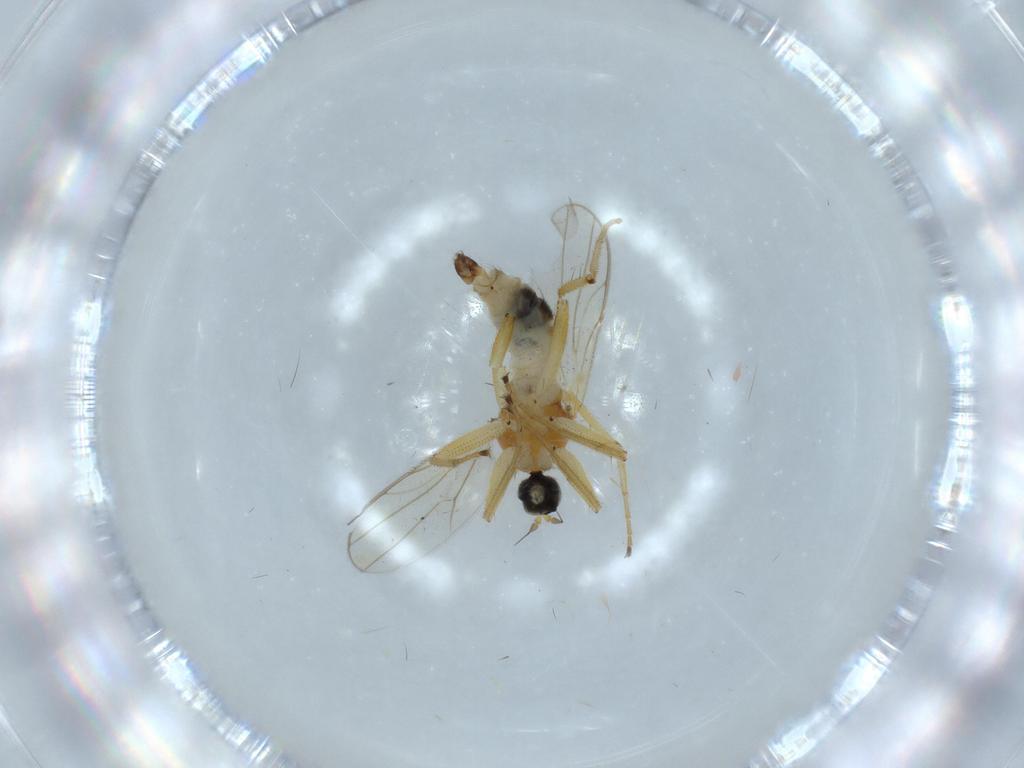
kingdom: Animalia
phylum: Arthropoda
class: Insecta
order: Diptera
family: Hybotidae
